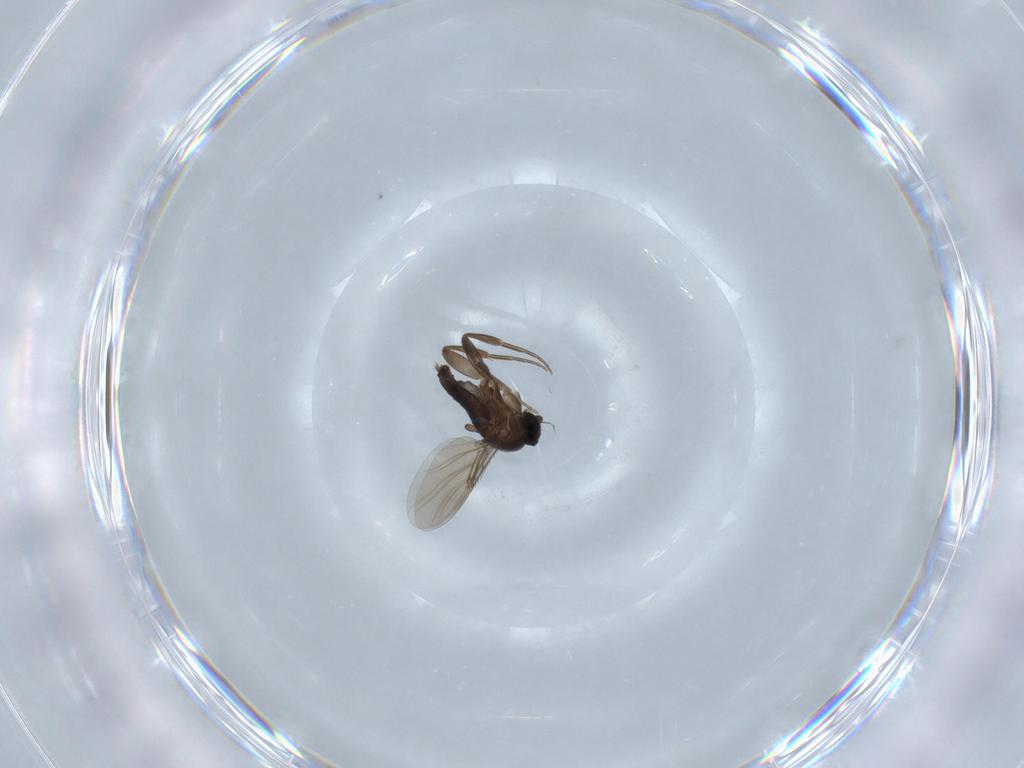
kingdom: Animalia
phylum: Arthropoda
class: Insecta
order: Diptera
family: Phoridae
